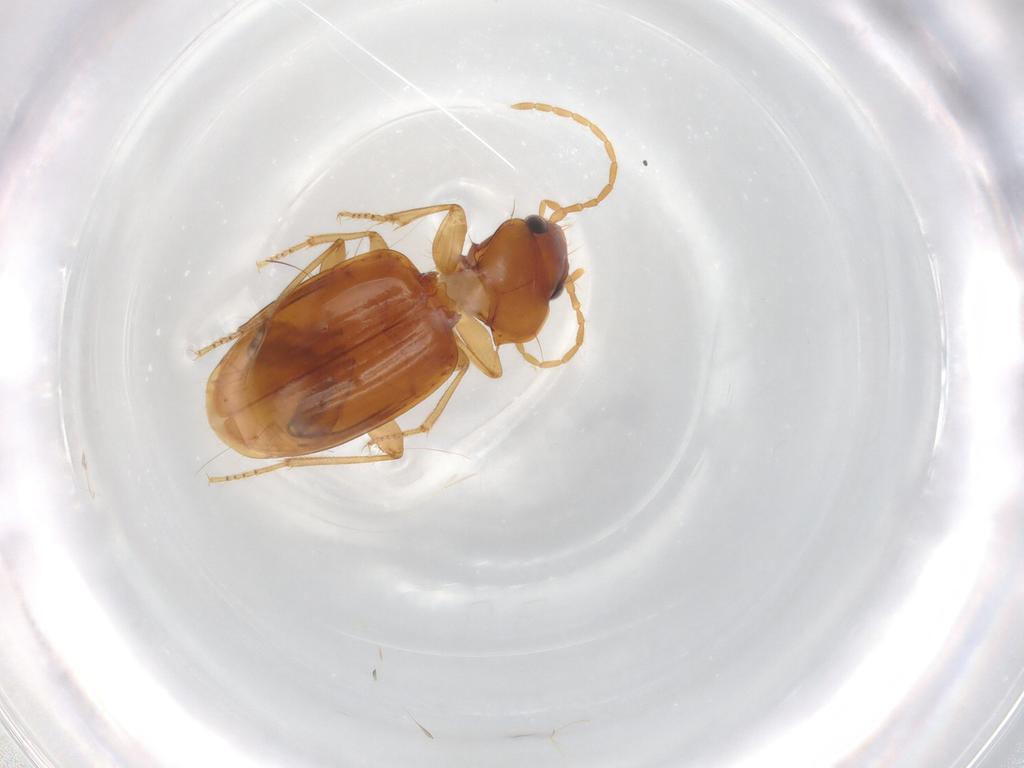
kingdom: Animalia
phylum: Arthropoda
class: Insecta
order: Coleoptera
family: Carabidae
